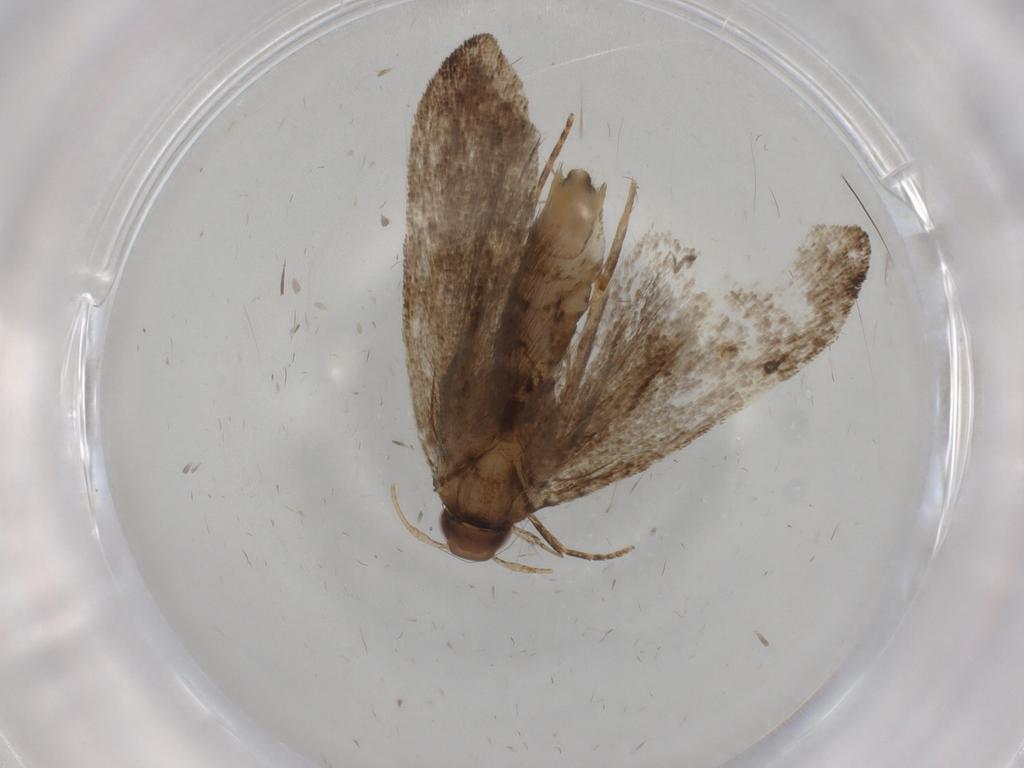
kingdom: Animalia
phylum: Arthropoda
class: Insecta
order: Lepidoptera
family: Gelechiidae
